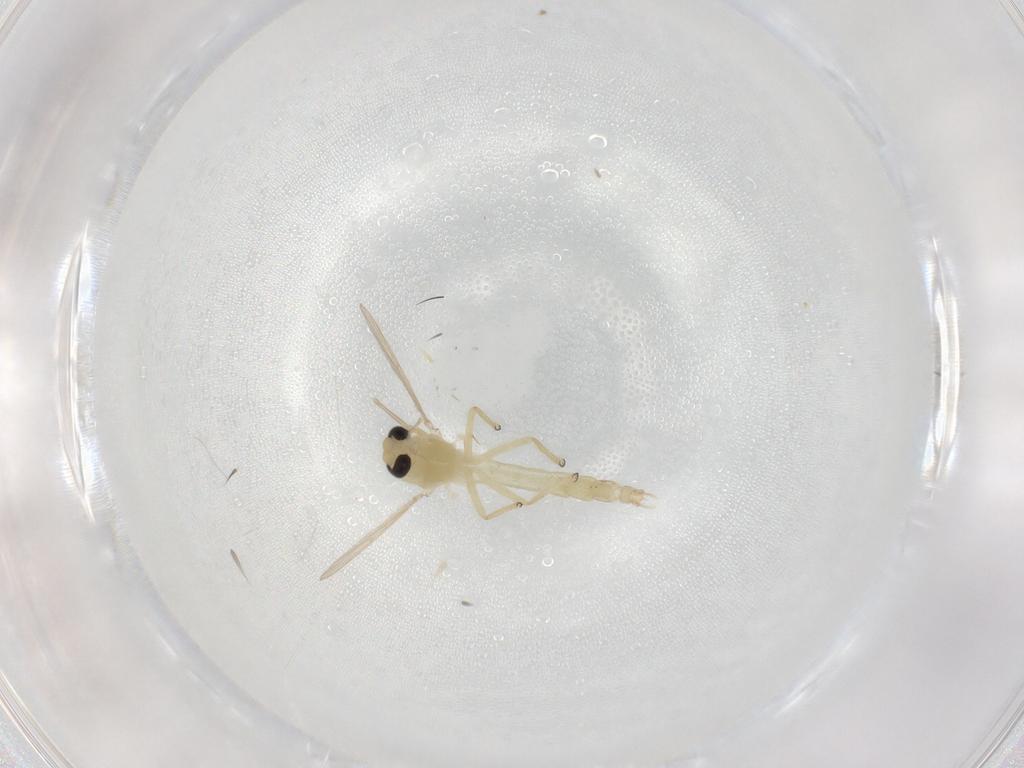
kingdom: Animalia
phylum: Arthropoda
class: Insecta
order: Diptera
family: Chironomidae
